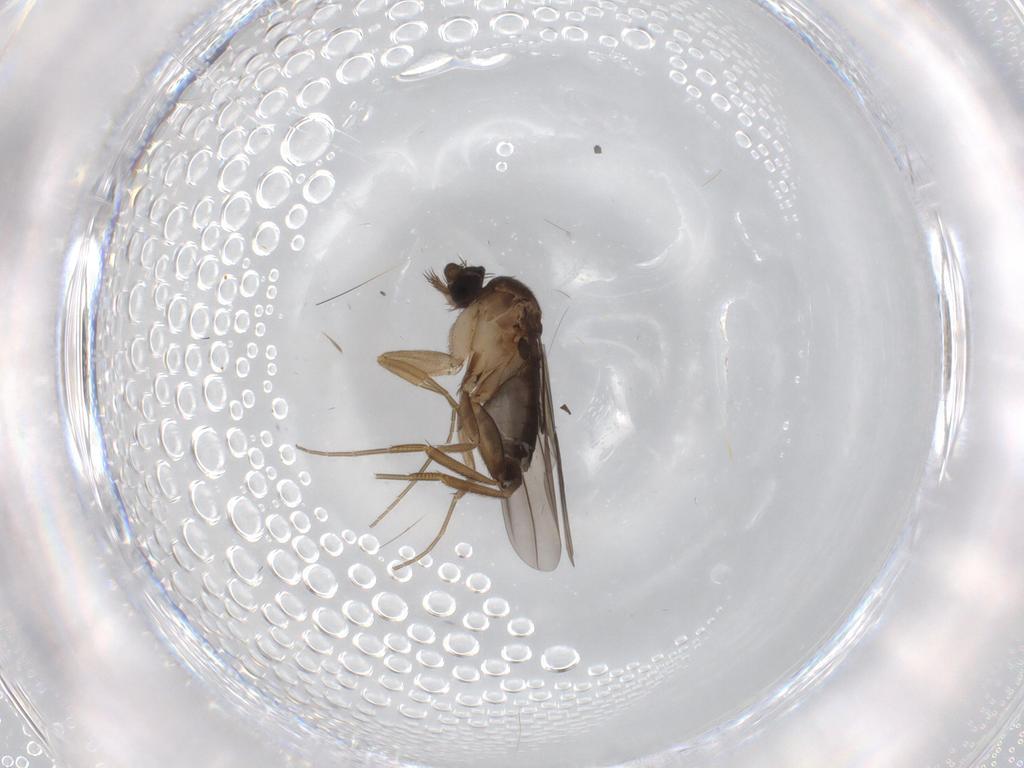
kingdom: Animalia
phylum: Arthropoda
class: Insecta
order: Diptera
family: Phoridae
